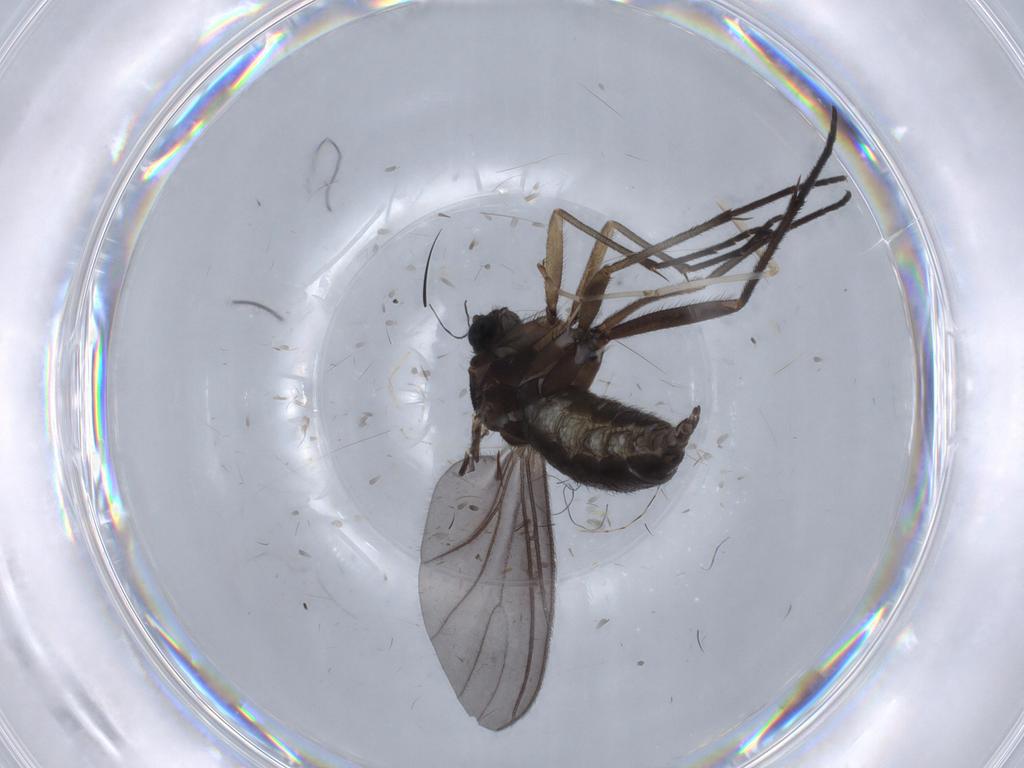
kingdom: Animalia
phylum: Arthropoda
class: Insecta
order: Diptera
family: Sciaridae
